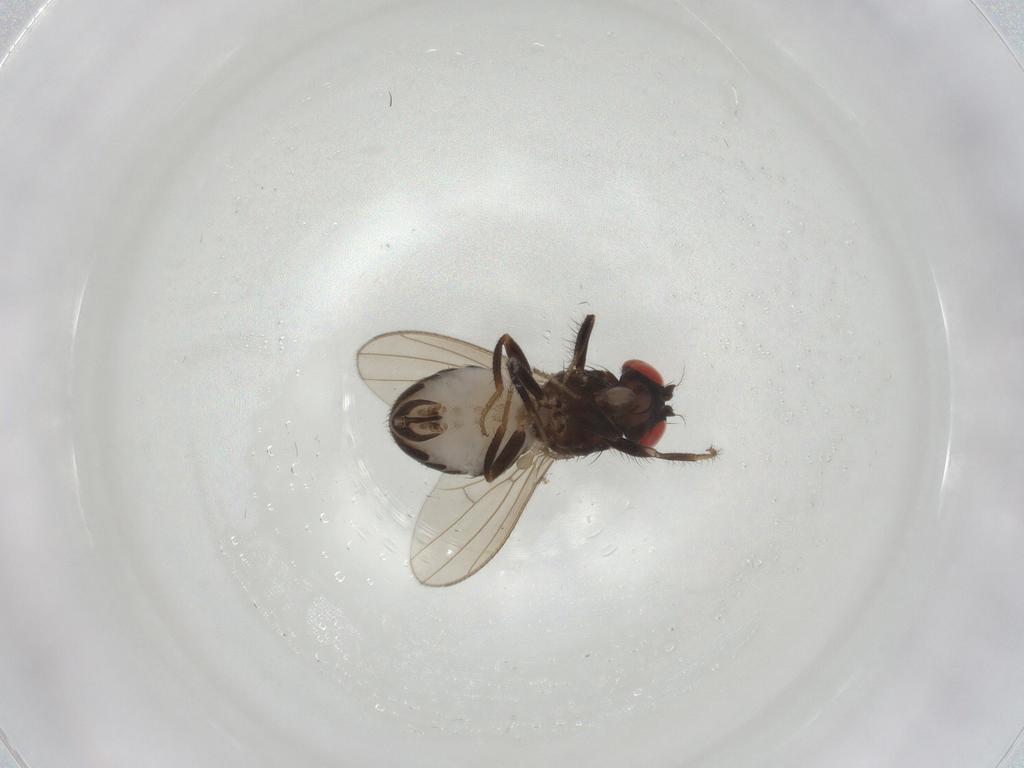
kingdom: Animalia
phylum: Arthropoda
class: Insecta
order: Diptera
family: Drosophilidae
